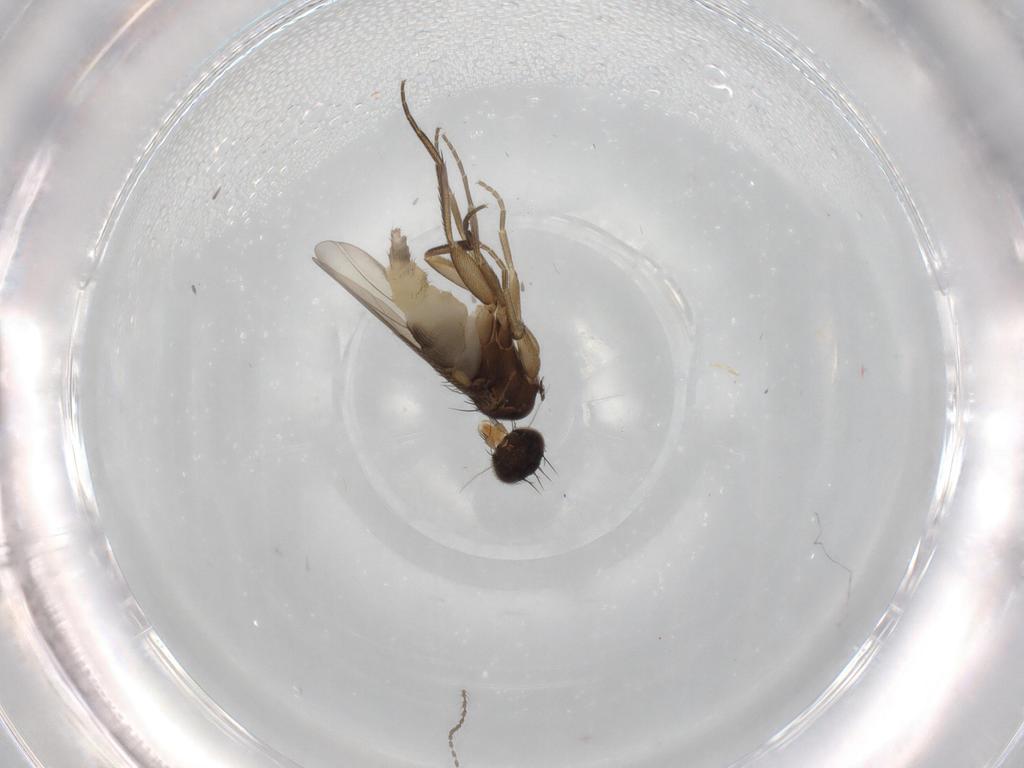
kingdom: Animalia
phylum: Arthropoda
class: Insecta
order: Diptera
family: Phoridae
